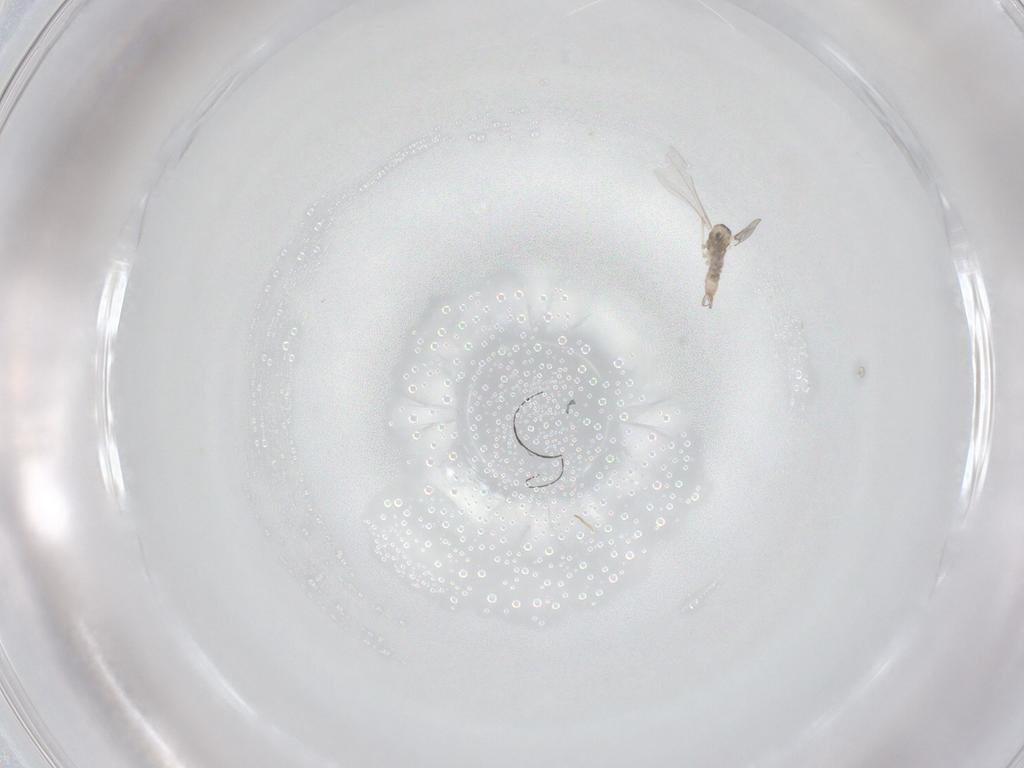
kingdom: Animalia
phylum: Arthropoda
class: Insecta
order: Diptera
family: Cecidomyiidae
